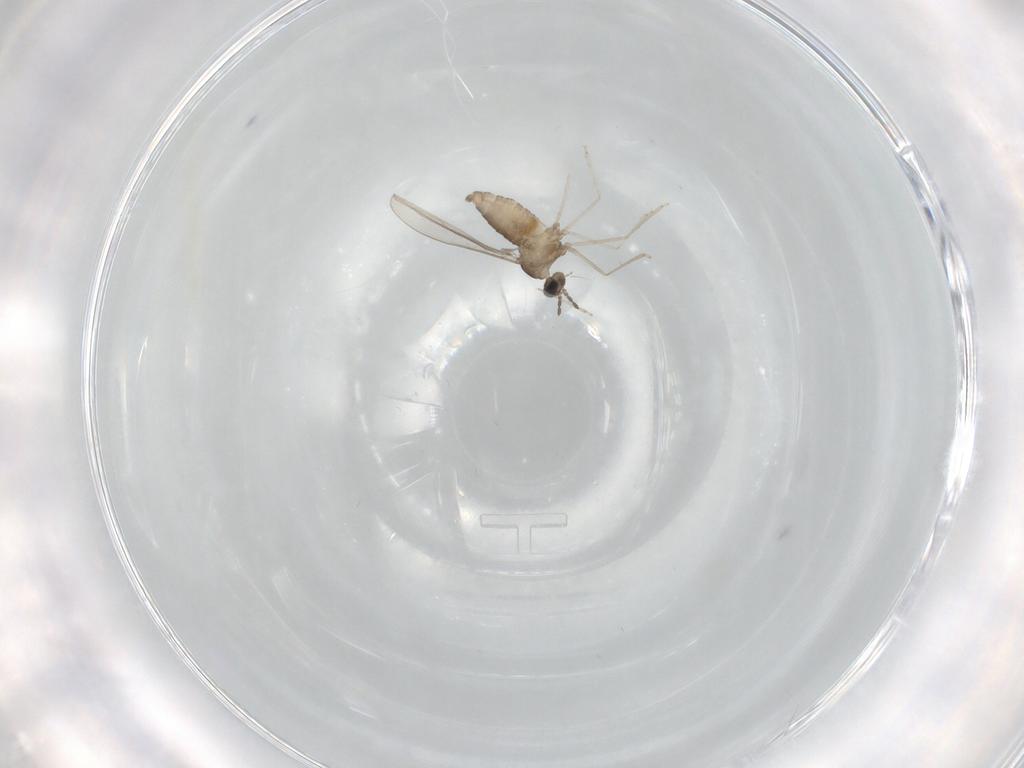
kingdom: Animalia
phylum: Arthropoda
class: Insecta
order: Diptera
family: Cecidomyiidae
